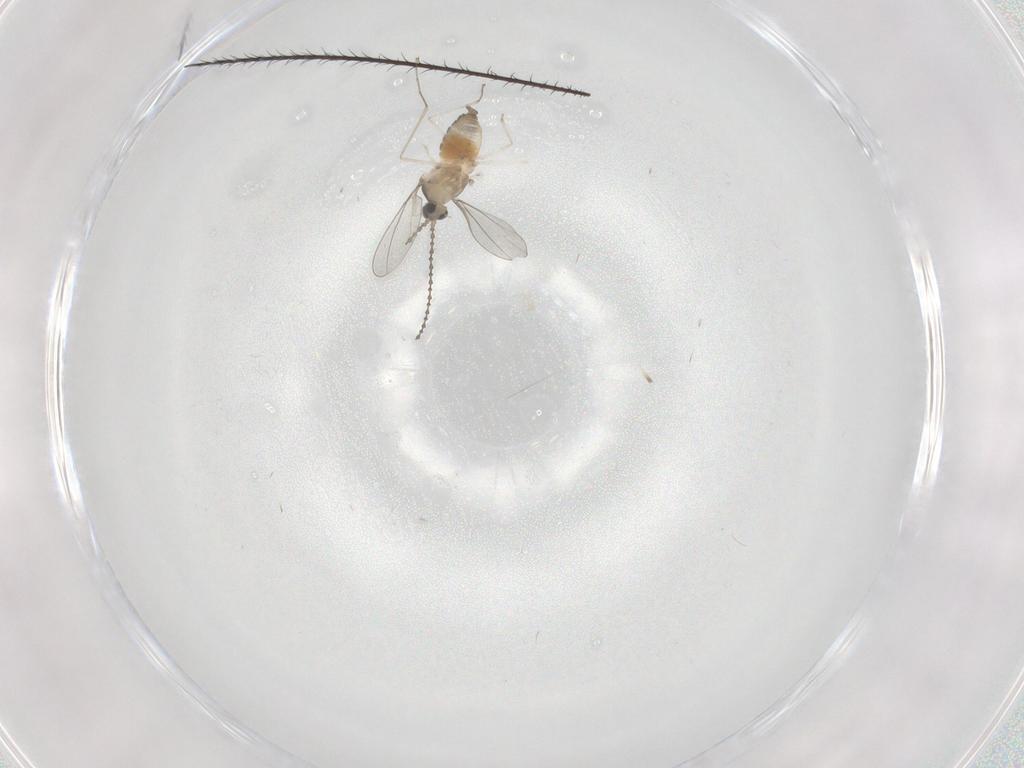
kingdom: Animalia
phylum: Arthropoda
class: Insecta
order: Diptera
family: Cecidomyiidae
